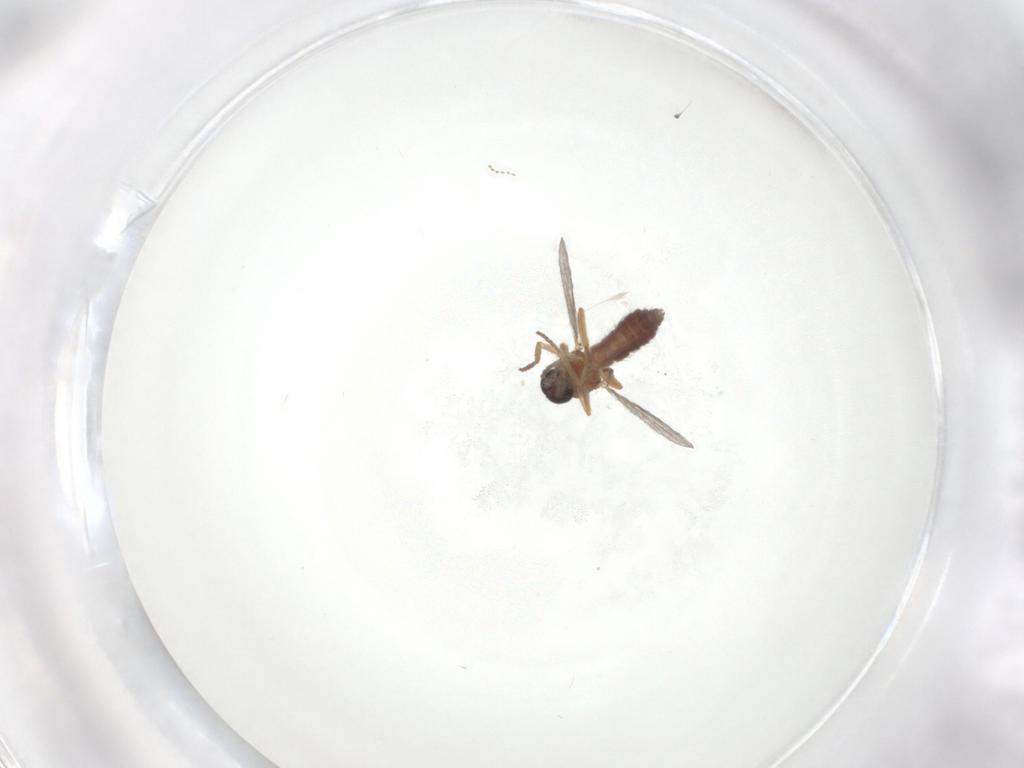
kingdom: Animalia
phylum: Arthropoda
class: Insecta
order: Diptera
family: Ceratopogonidae
